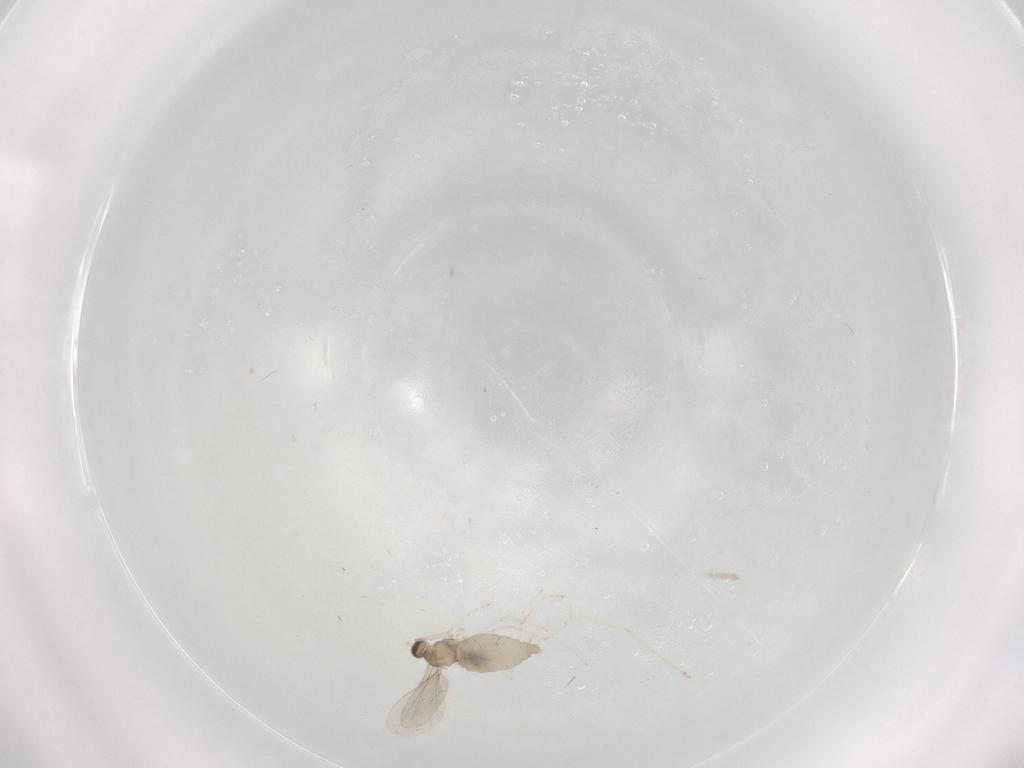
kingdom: Animalia
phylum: Arthropoda
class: Insecta
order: Diptera
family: Cecidomyiidae
